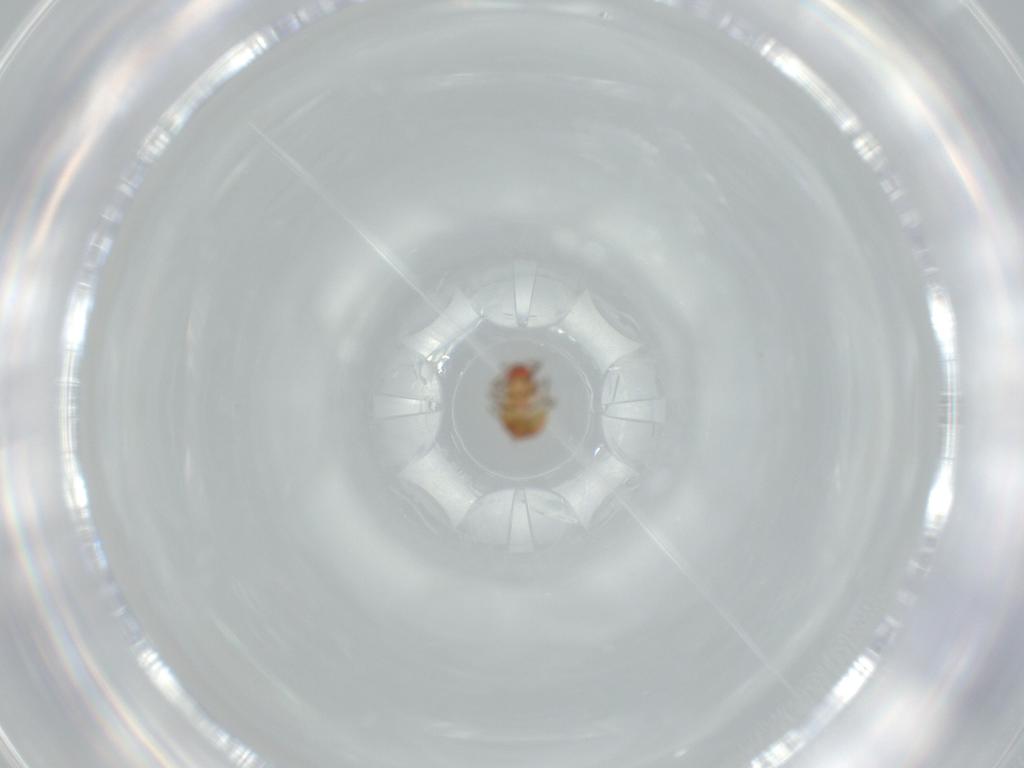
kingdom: Animalia
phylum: Arthropoda
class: Insecta
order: Hemiptera
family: Schizopteridae
